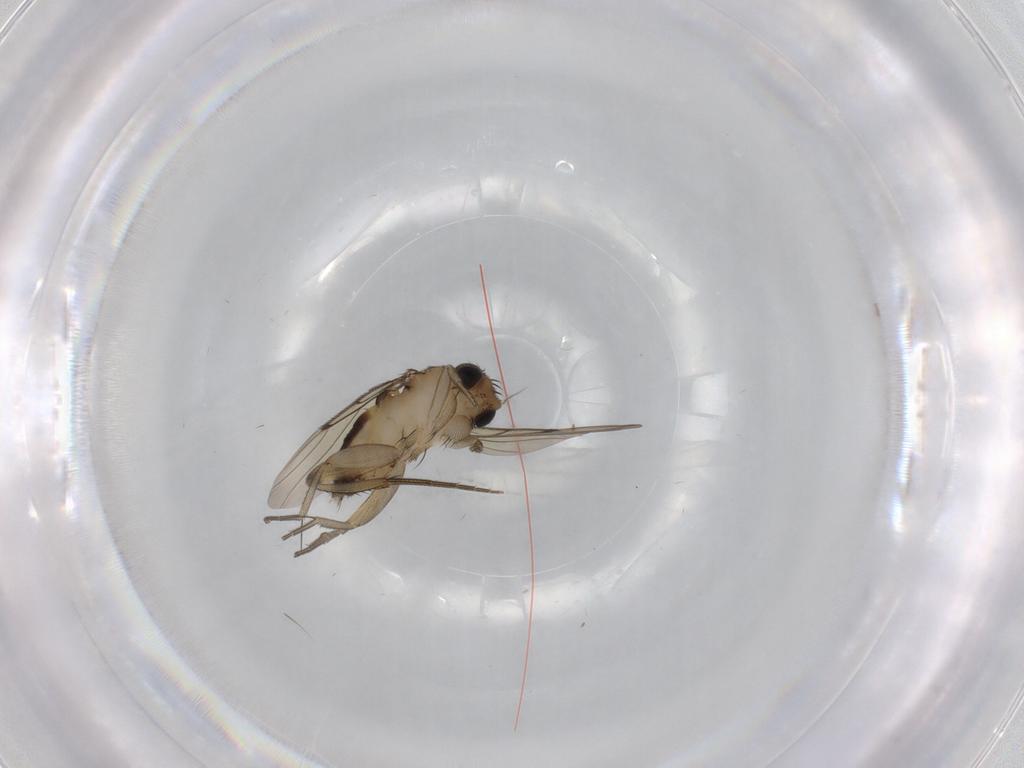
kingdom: Animalia
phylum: Arthropoda
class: Insecta
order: Diptera
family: Phoridae
